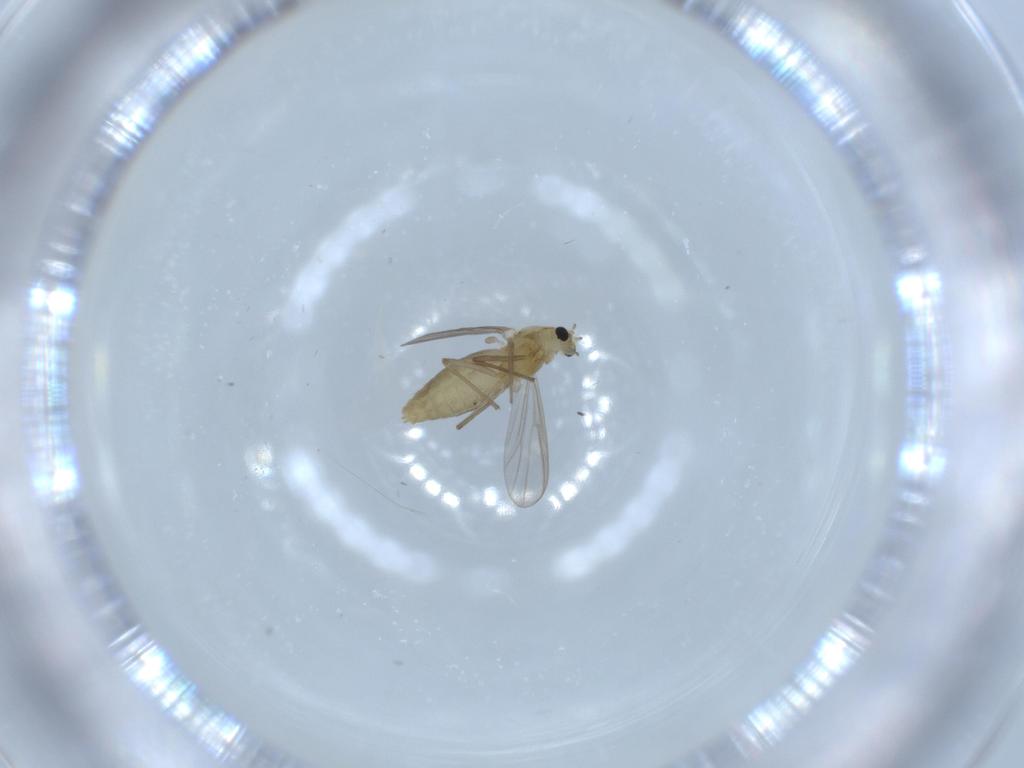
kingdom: Animalia
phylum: Arthropoda
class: Insecta
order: Diptera
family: Chironomidae
